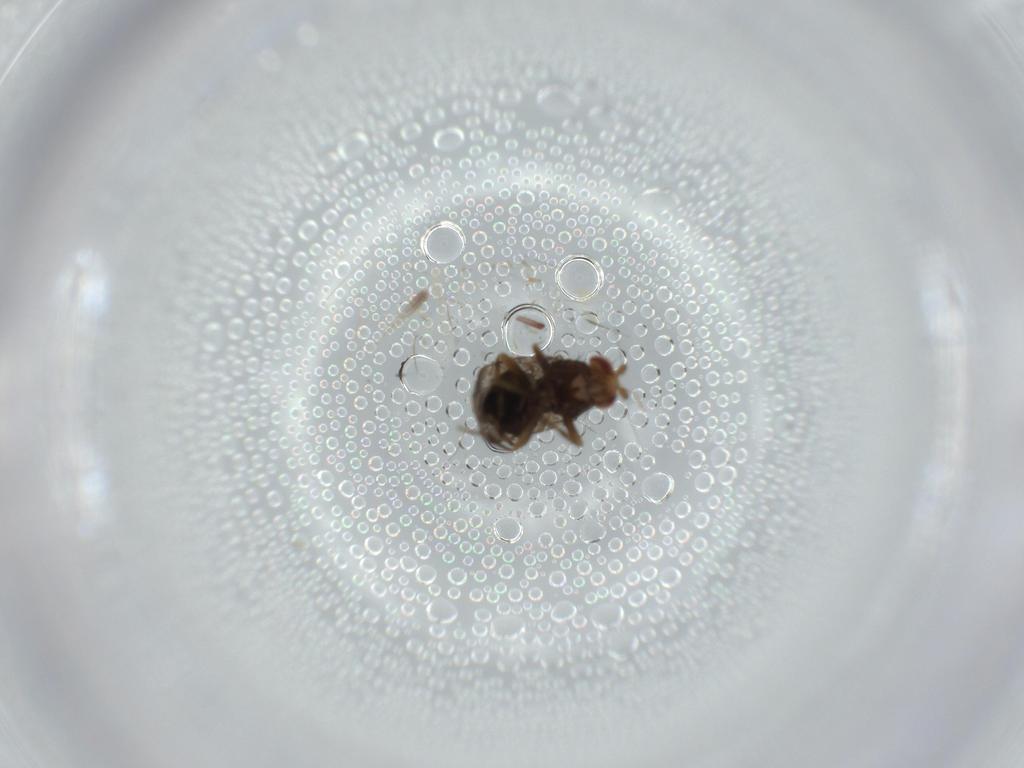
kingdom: Animalia
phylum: Arthropoda
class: Insecta
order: Diptera
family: Sphaeroceridae
